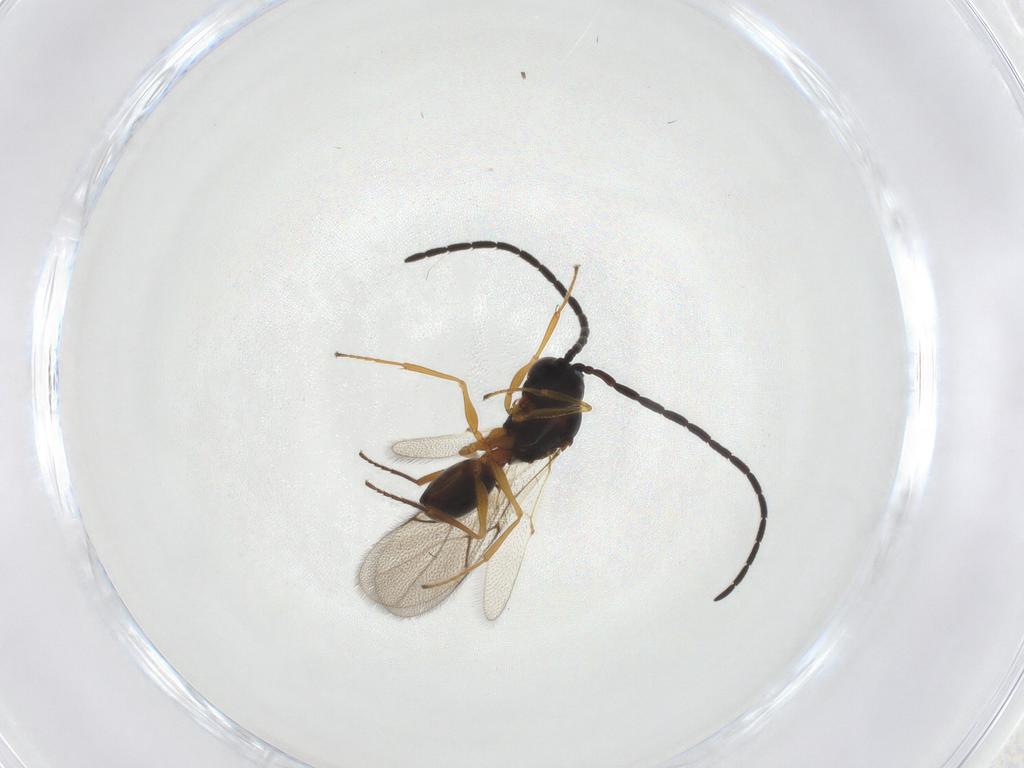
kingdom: Animalia
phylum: Arthropoda
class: Insecta
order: Hymenoptera
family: Figitidae
